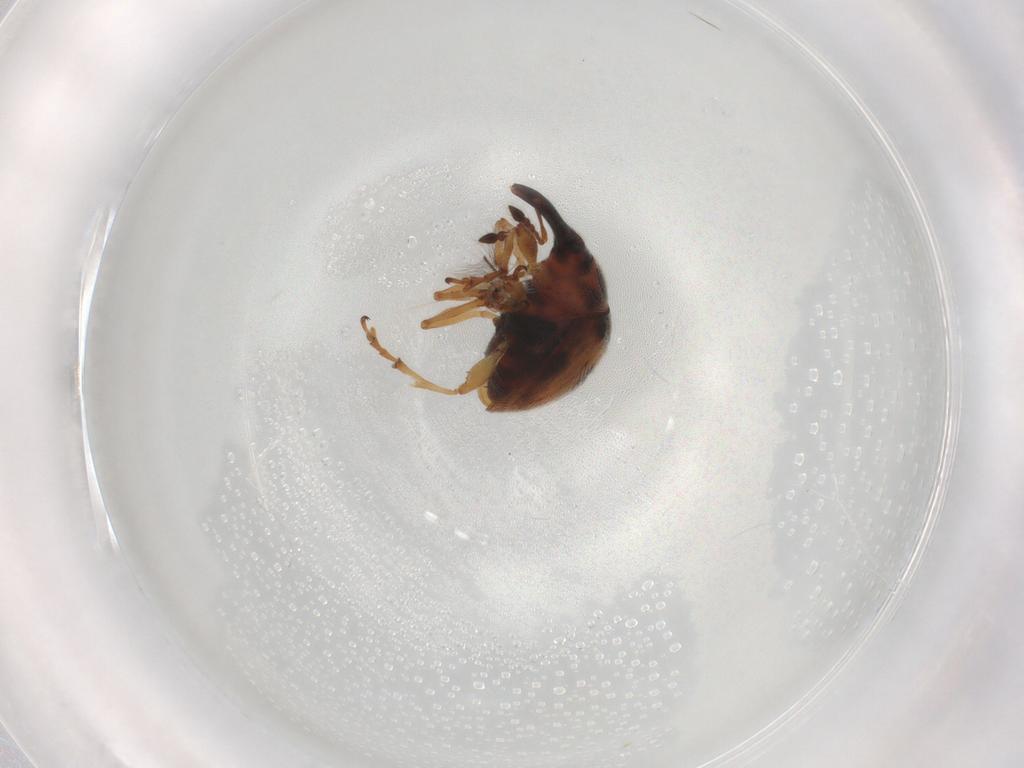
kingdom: Animalia
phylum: Arthropoda
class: Insecta
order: Coleoptera
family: Brentidae
